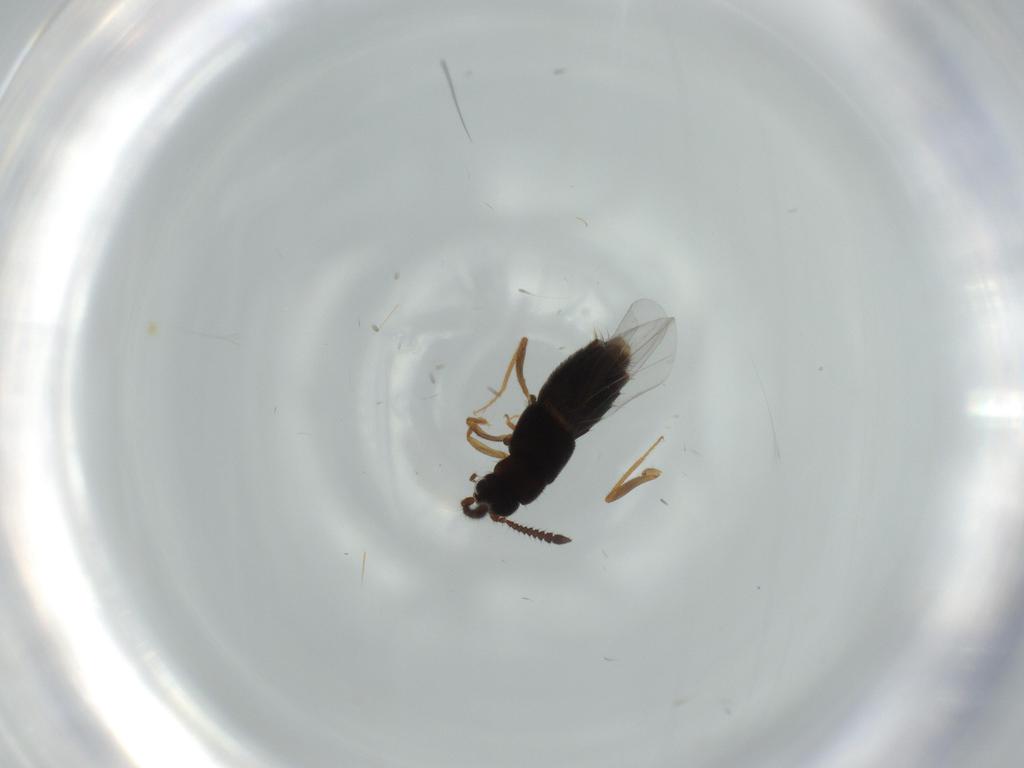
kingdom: Animalia
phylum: Arthropoda
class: Insecta
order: Coleoptera
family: Staphylinidae
